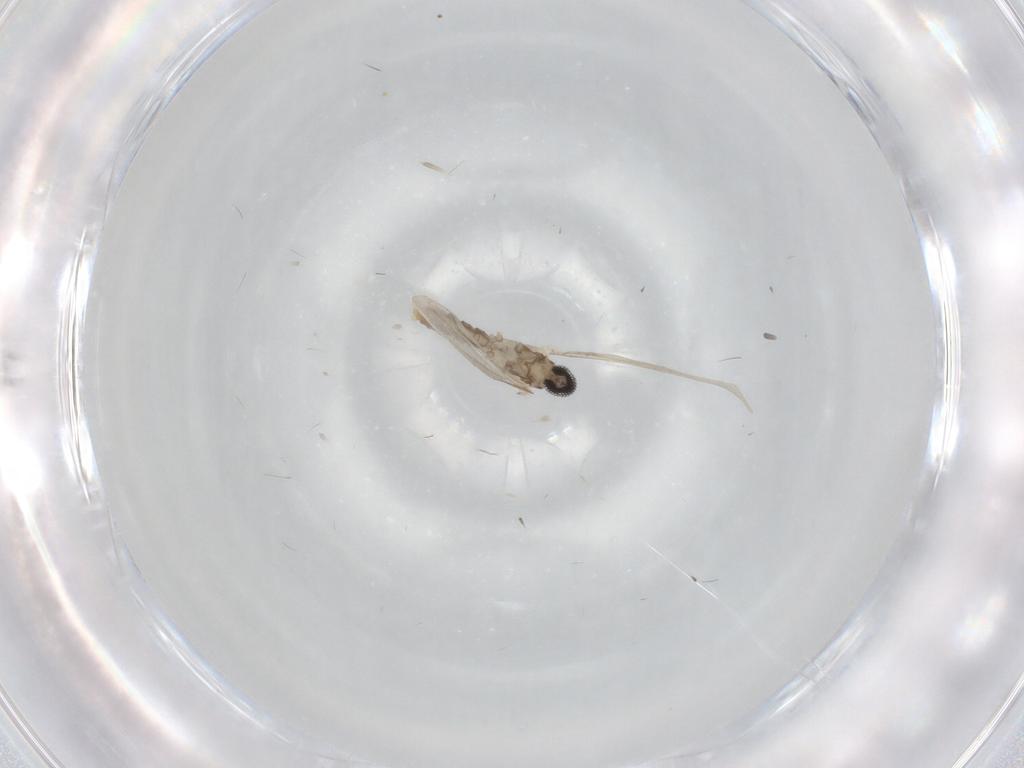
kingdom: Animalia
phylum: Arthropoda
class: Insecta
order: Diptera
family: Cecidomyiidae
